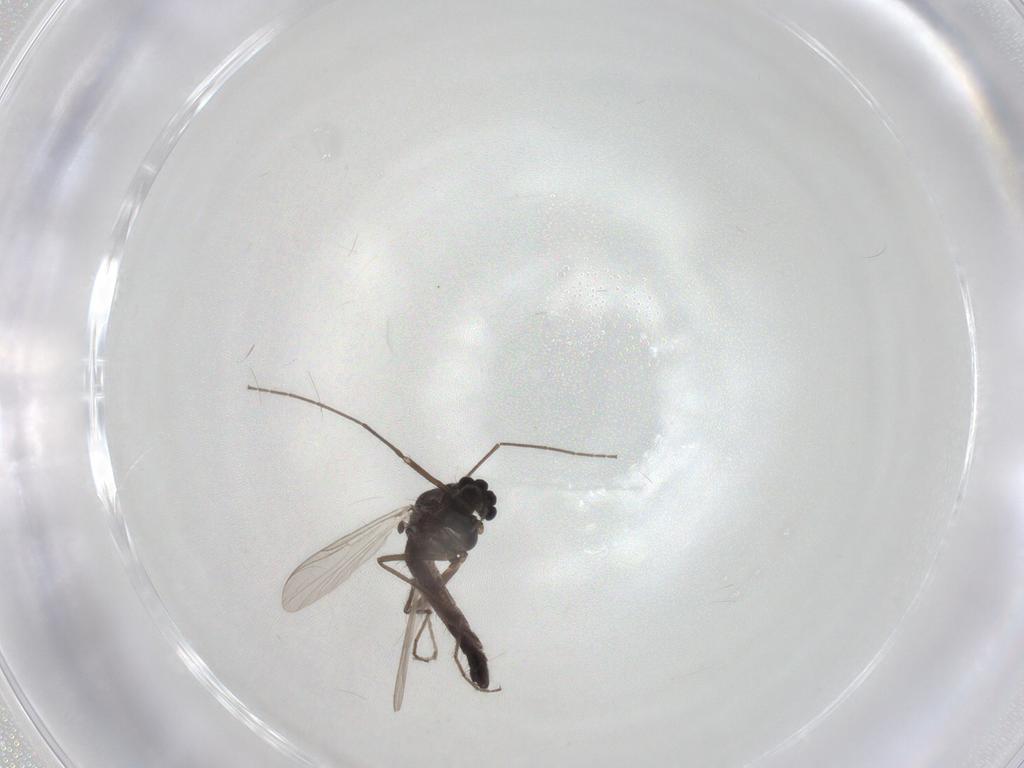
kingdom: Animalia
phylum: Arthropoda
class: Insecta
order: Diptera
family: Chironomidae
